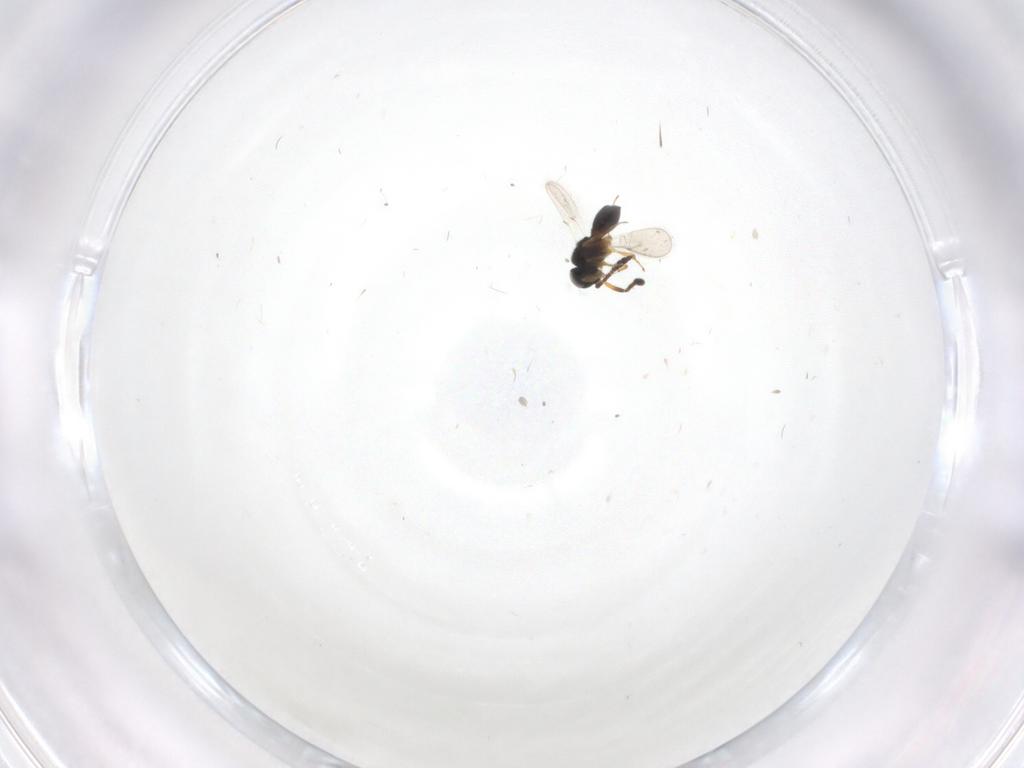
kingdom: Animalia
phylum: Arthropoda
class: Insecta
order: Hymenoptera
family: Scelionidae
